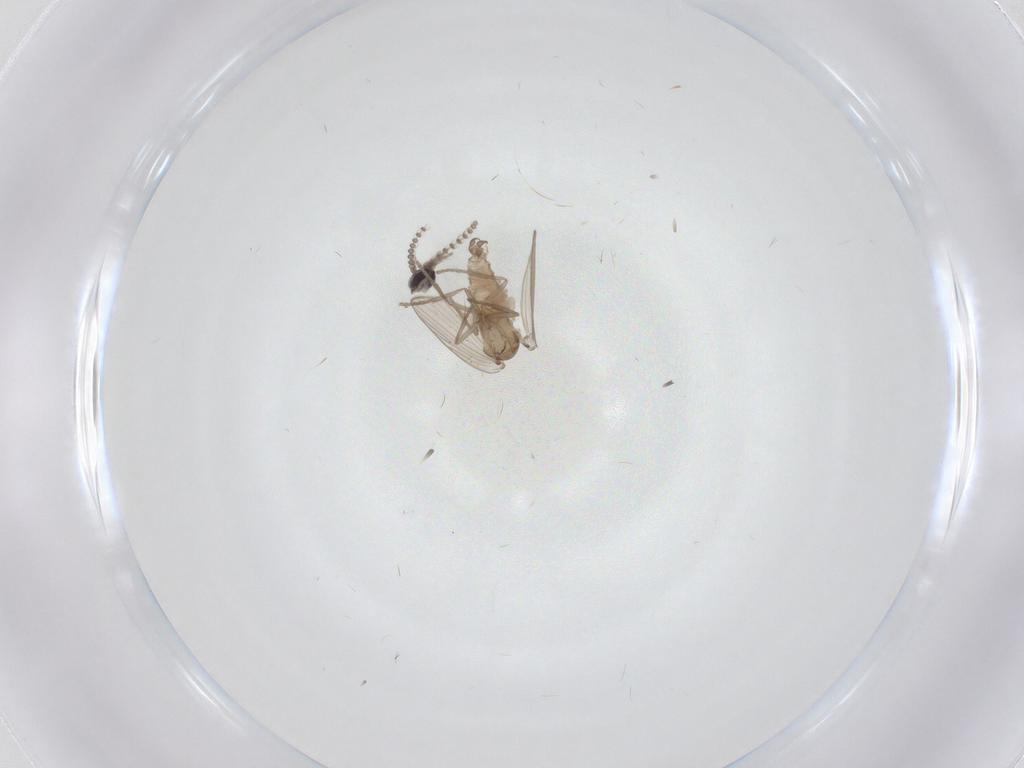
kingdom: Animalia
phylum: Arthropoda
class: Insecta
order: Diptera
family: Psychodidae
